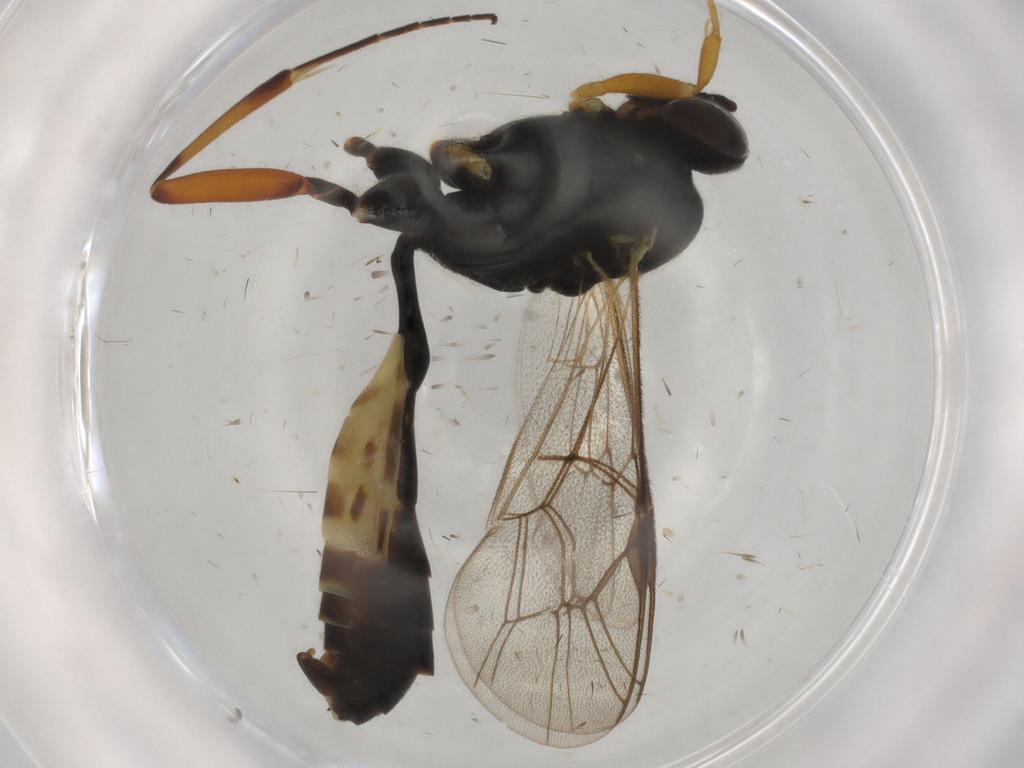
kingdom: Animalia
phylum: Arthropoda
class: Insecta
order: Hymenoptera
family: Ichneumonidae
